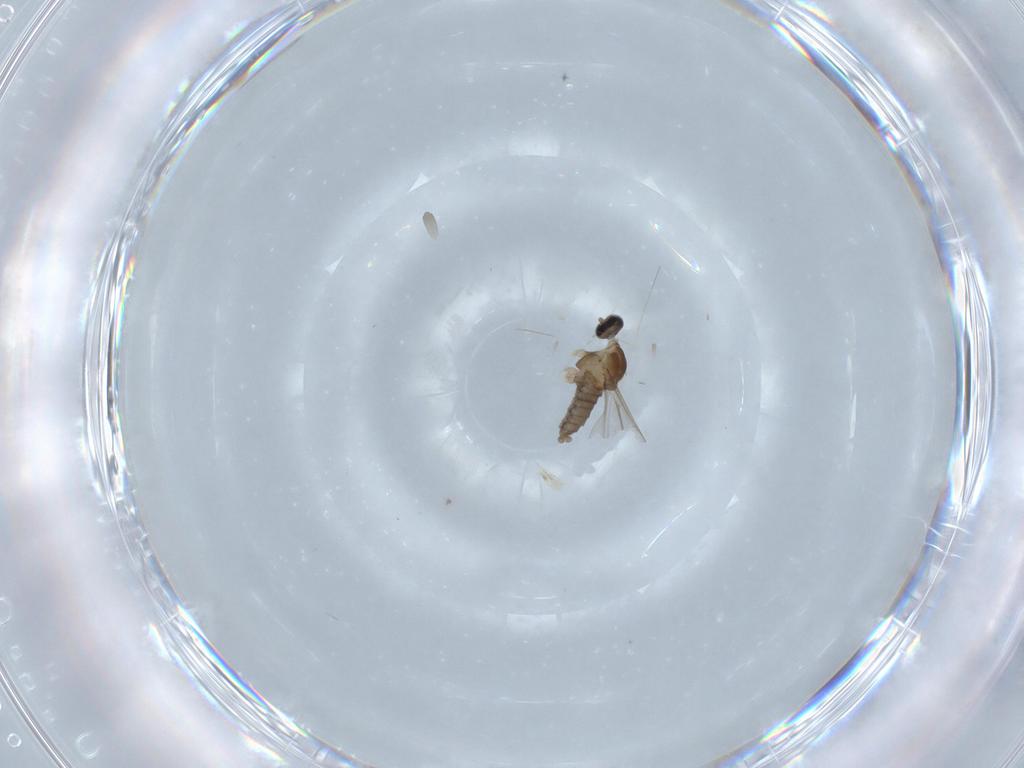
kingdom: Animalia
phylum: Arthropoda
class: Insecta
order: Diptera
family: Cecidomyiidae
